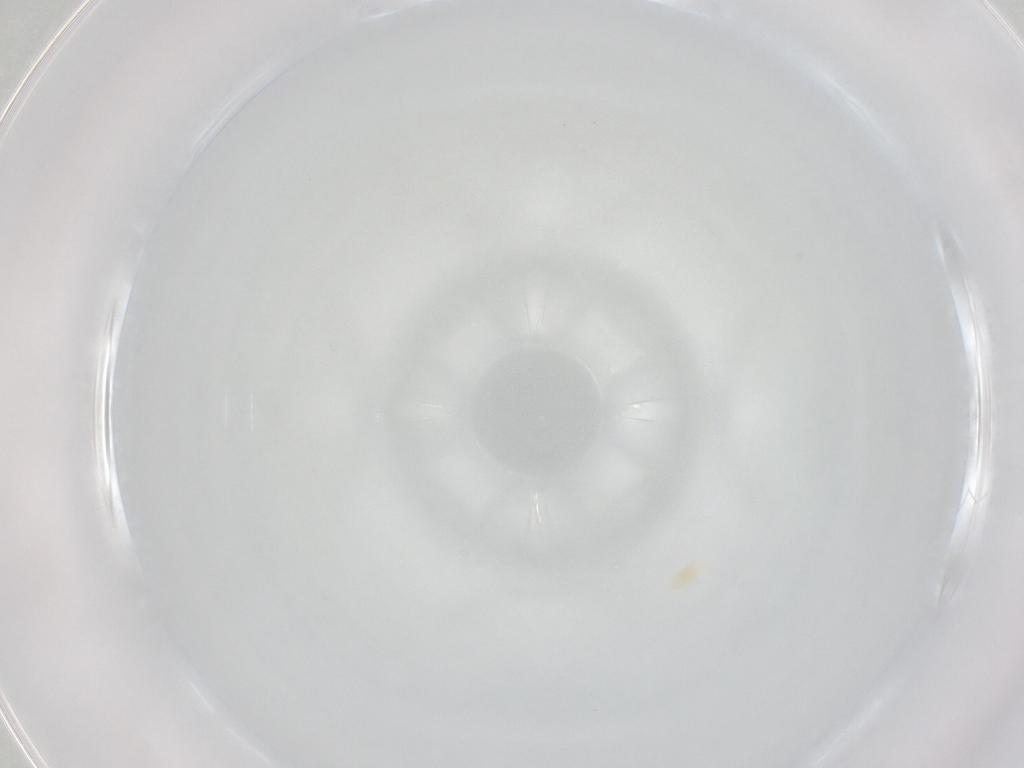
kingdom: Animalia
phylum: Arthropoda
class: Arachnida
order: Trombidiformes
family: Rhagidiidae
